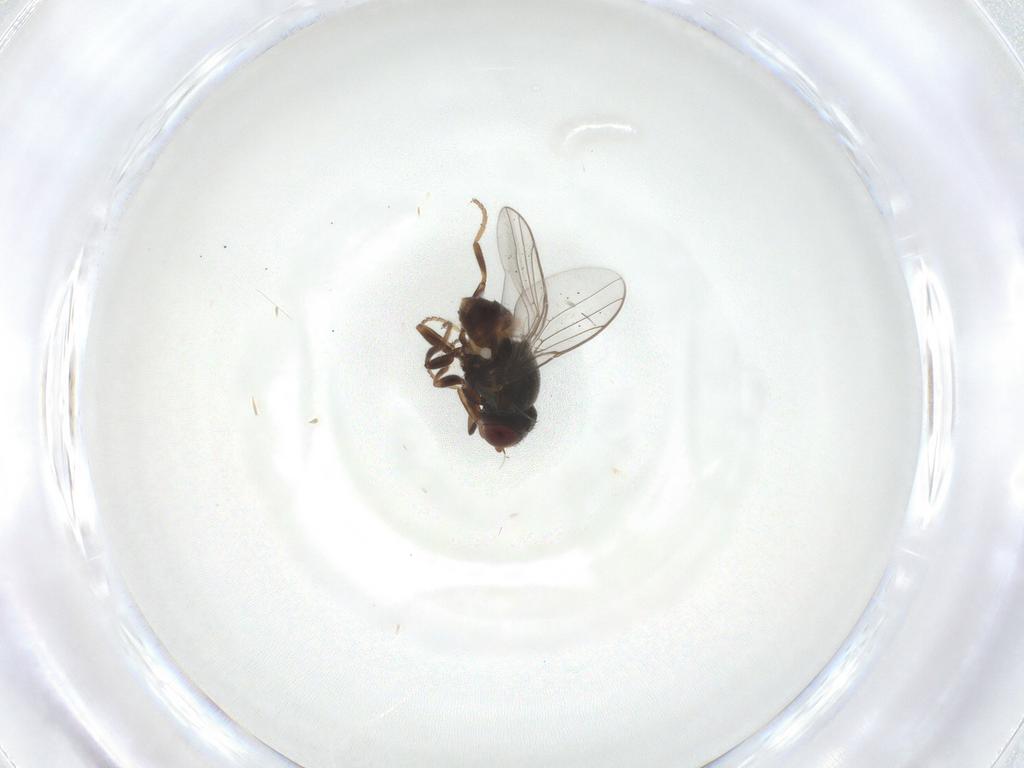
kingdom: Animalia
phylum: Arthropoda
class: Insecta
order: Diptera
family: Chloropidae
